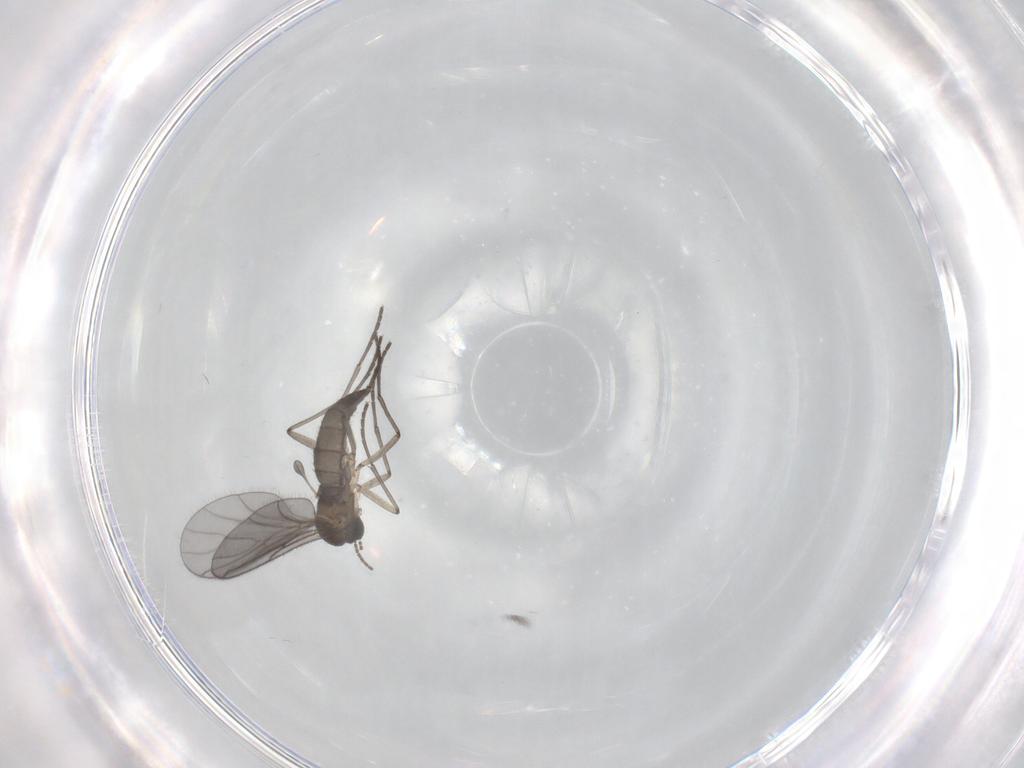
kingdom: Animalia
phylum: Arthropoda
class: Insecta
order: Diptera
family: Sciaridae
